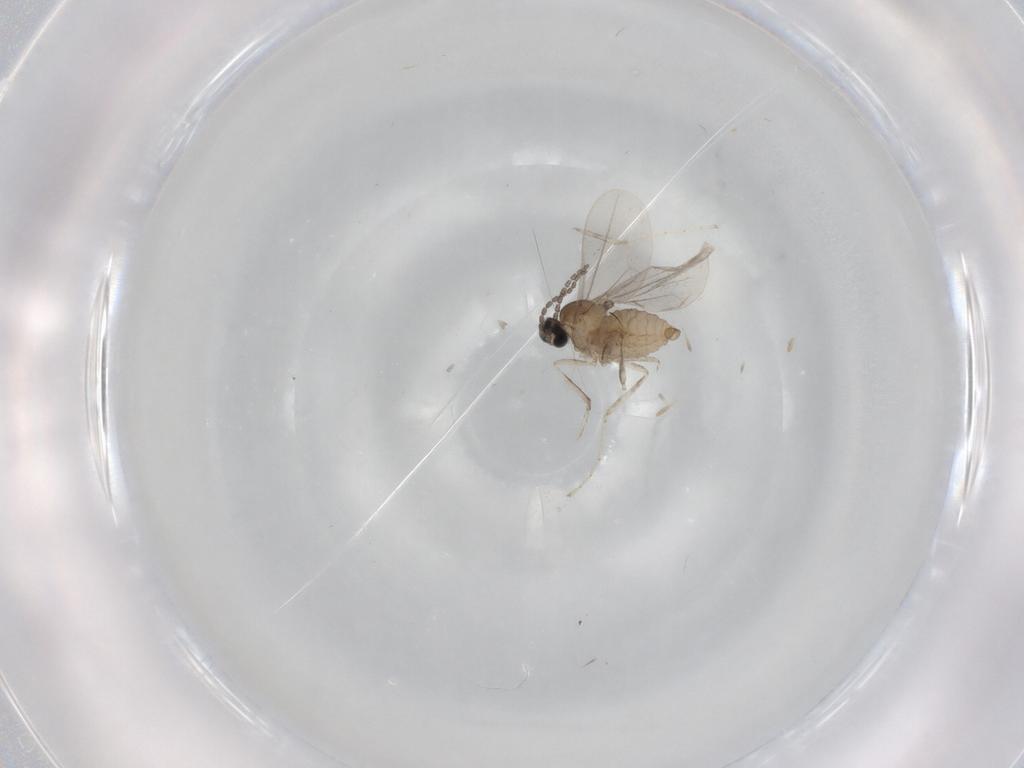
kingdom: Animalia
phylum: Arthropoda
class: Insecta
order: Diptera
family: Cecidomyiidae
